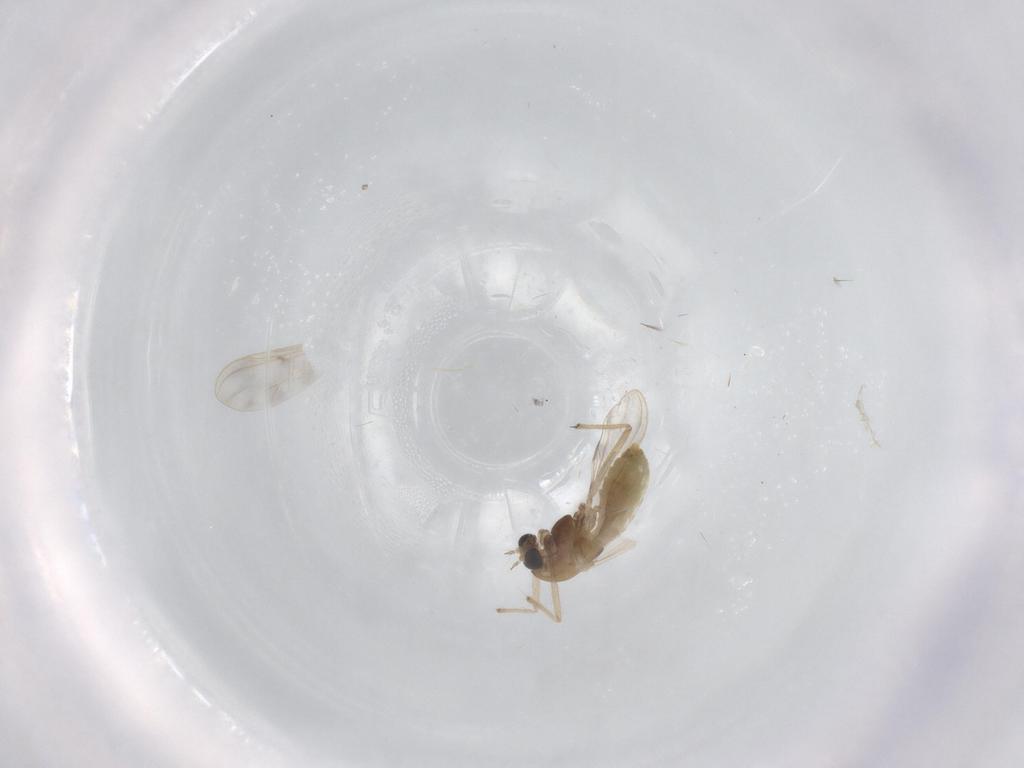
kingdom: Animalia
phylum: Arthropoda
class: Insecta
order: Diptera
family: Chironomidae
